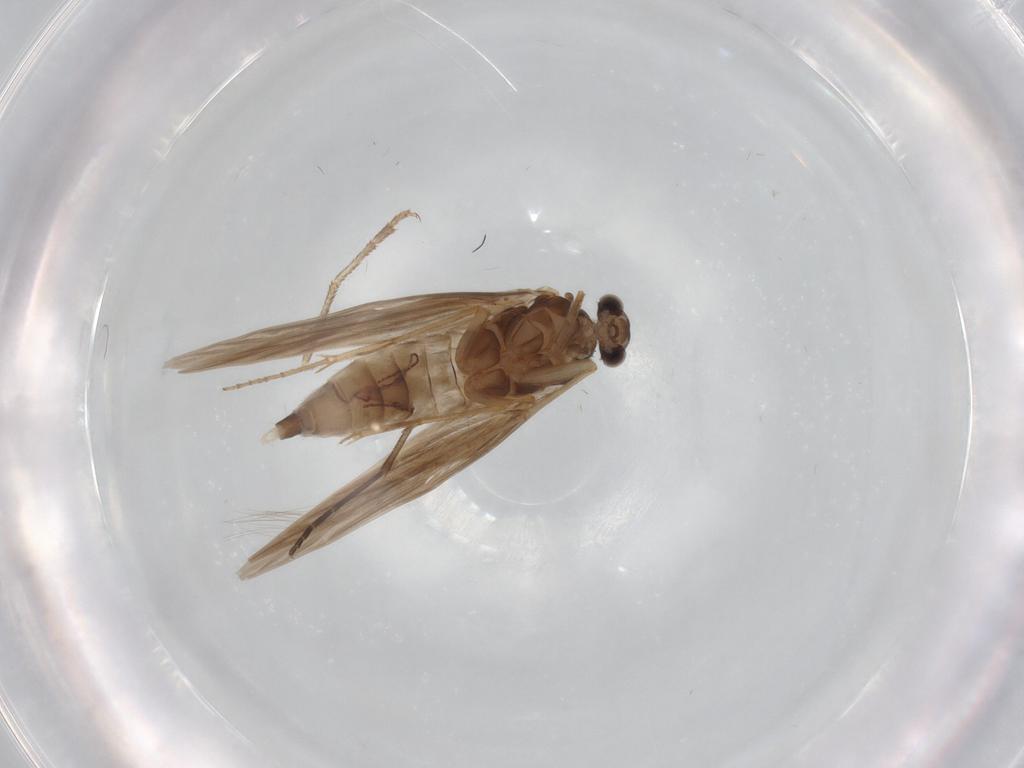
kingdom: Animalia
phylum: Arthropoda
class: Insecta
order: Trichoptera
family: Hydroptilidae
